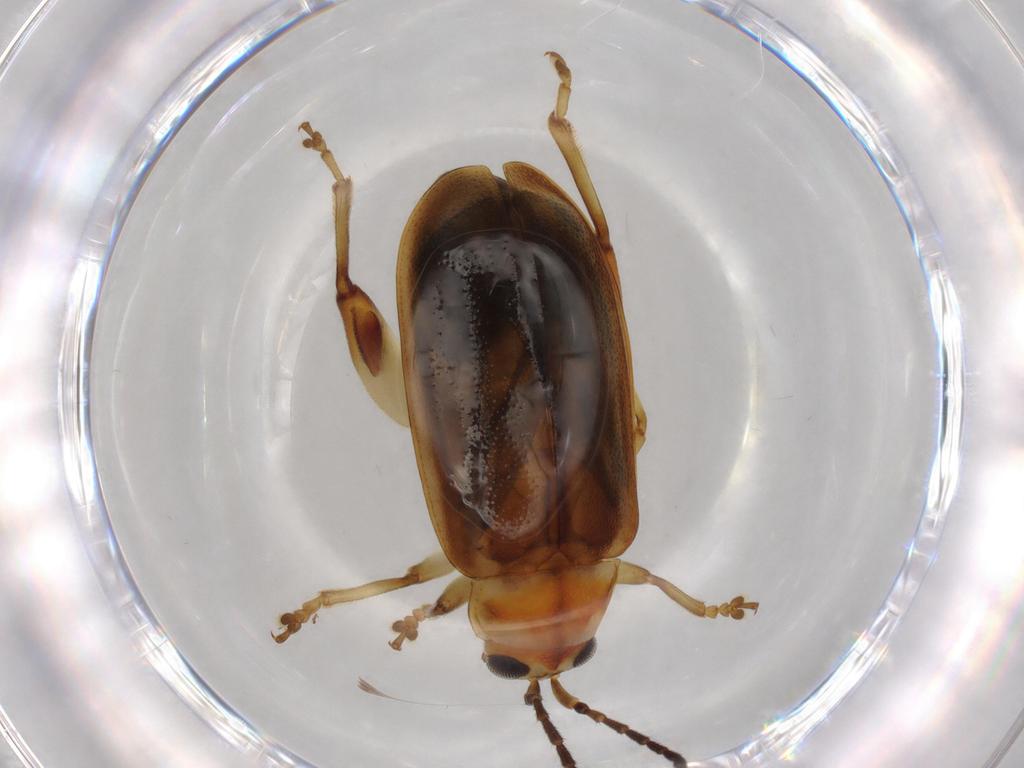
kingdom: Animalia
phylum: Arthropoda
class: Insecta
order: Coleoptera
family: Chrysomelidae
